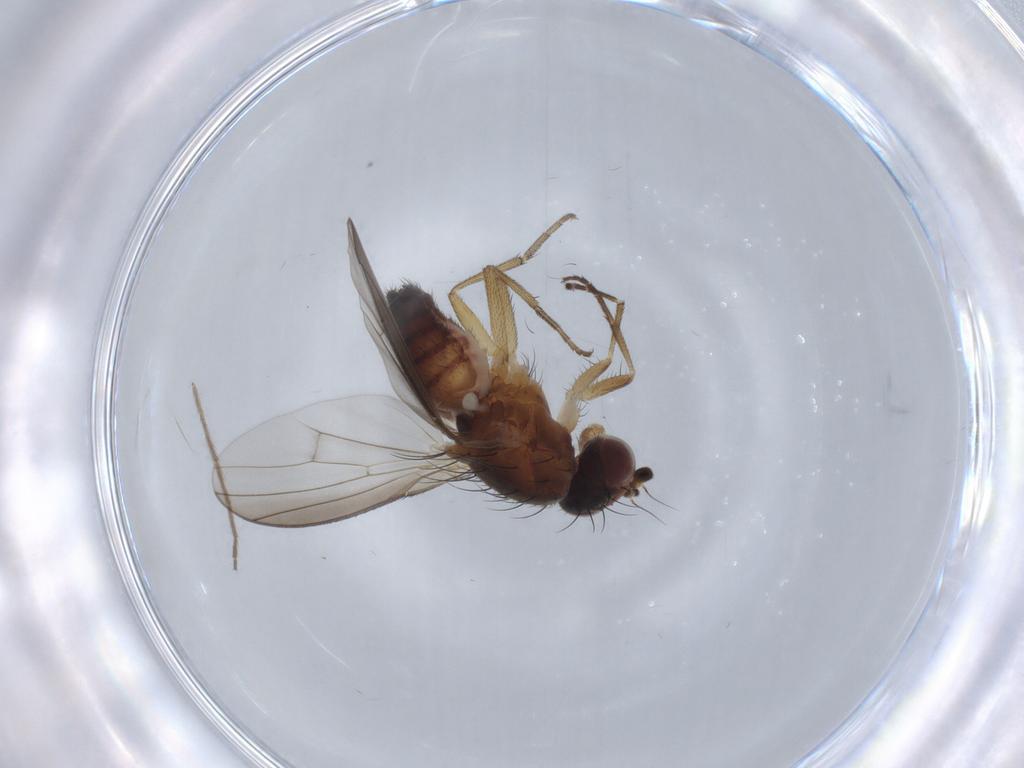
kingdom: Animalia
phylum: Arthropoda
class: Insecta
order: Diptera
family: Heleomyzidae
